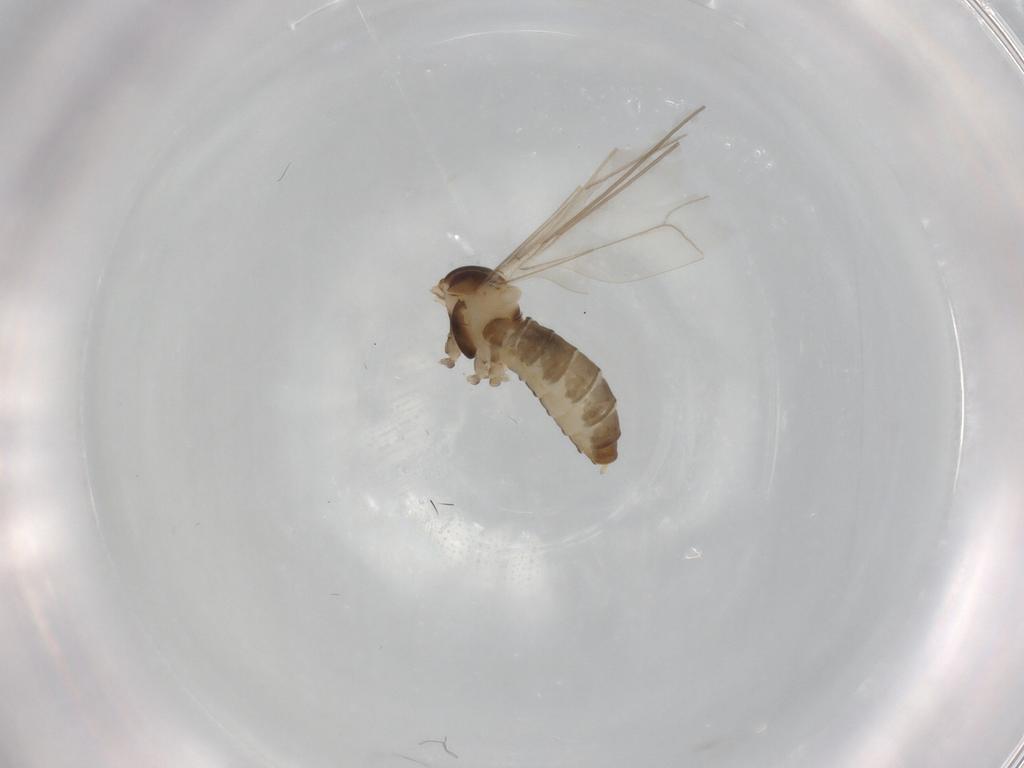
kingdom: Animalia
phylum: Arthropoda
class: Insecta
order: Diptera
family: Cecidomyiidae
